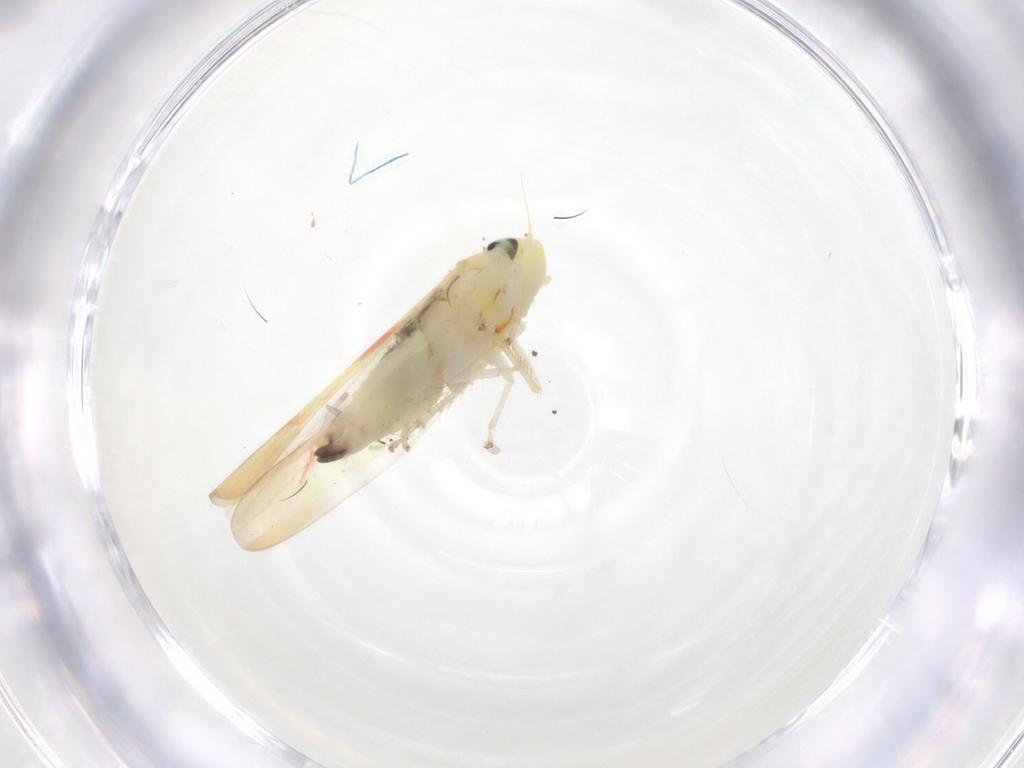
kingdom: Animalia
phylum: Arthropoda
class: Insecta
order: Hemiptera
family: Cicadellidae
